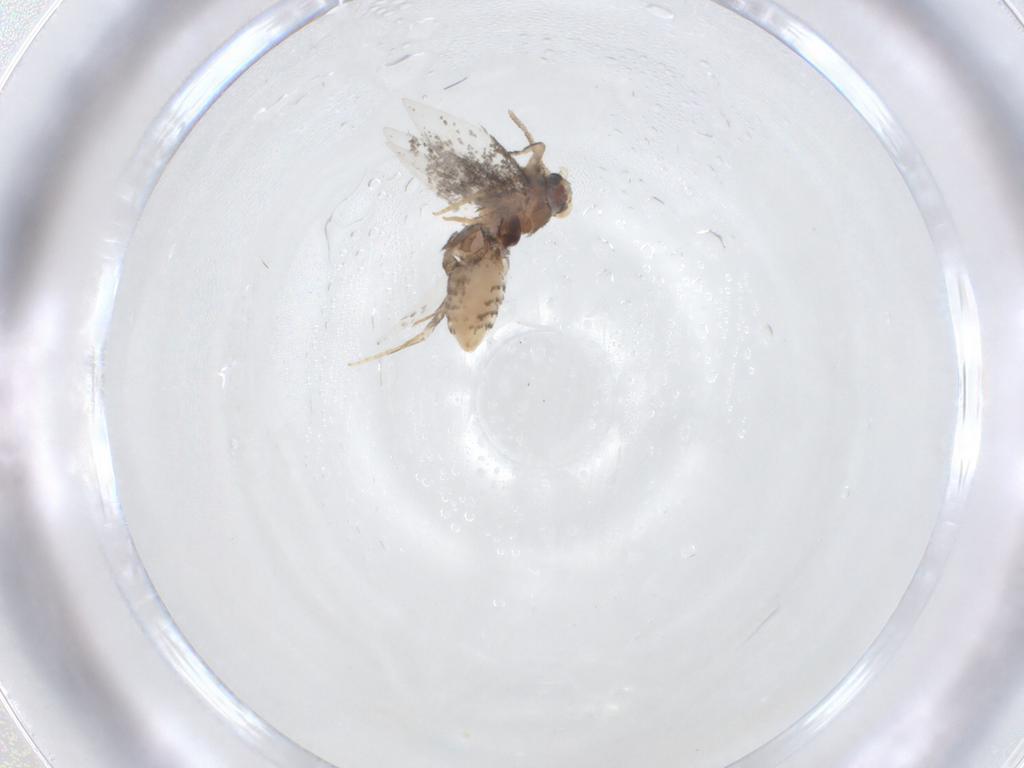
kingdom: Animalia
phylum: Arthropoda
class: Insecta
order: Lepidoptera
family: Nepticulidae
